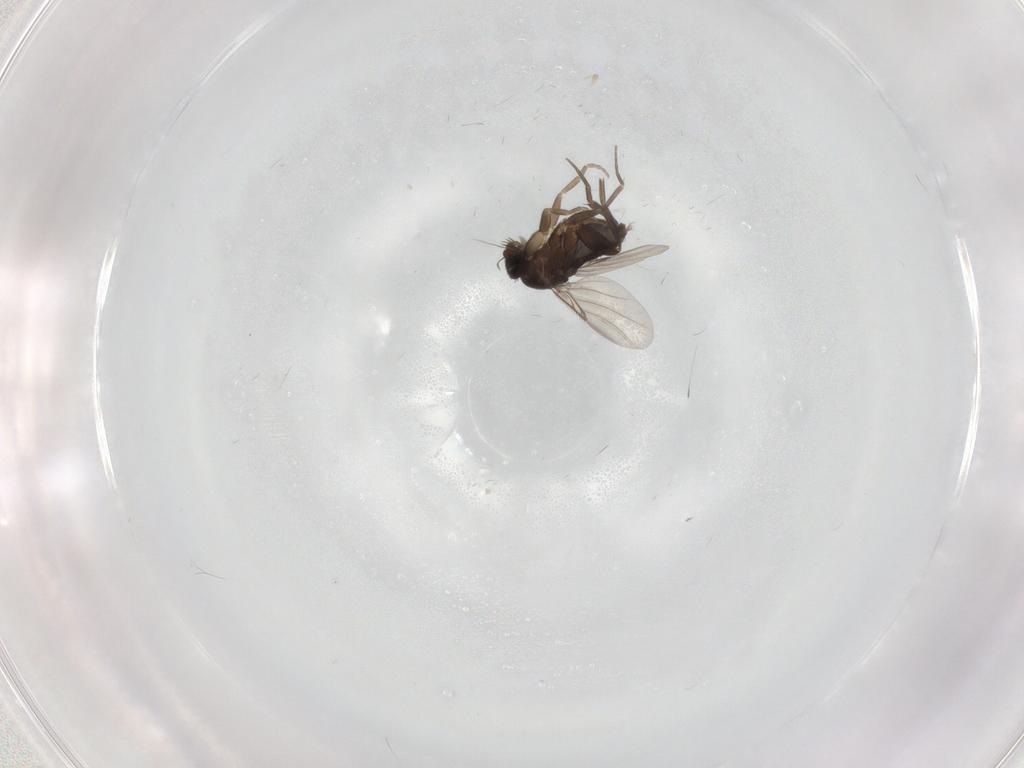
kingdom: Animalia
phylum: Arthropoda
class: Insecta
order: Diptera
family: Phoridae
